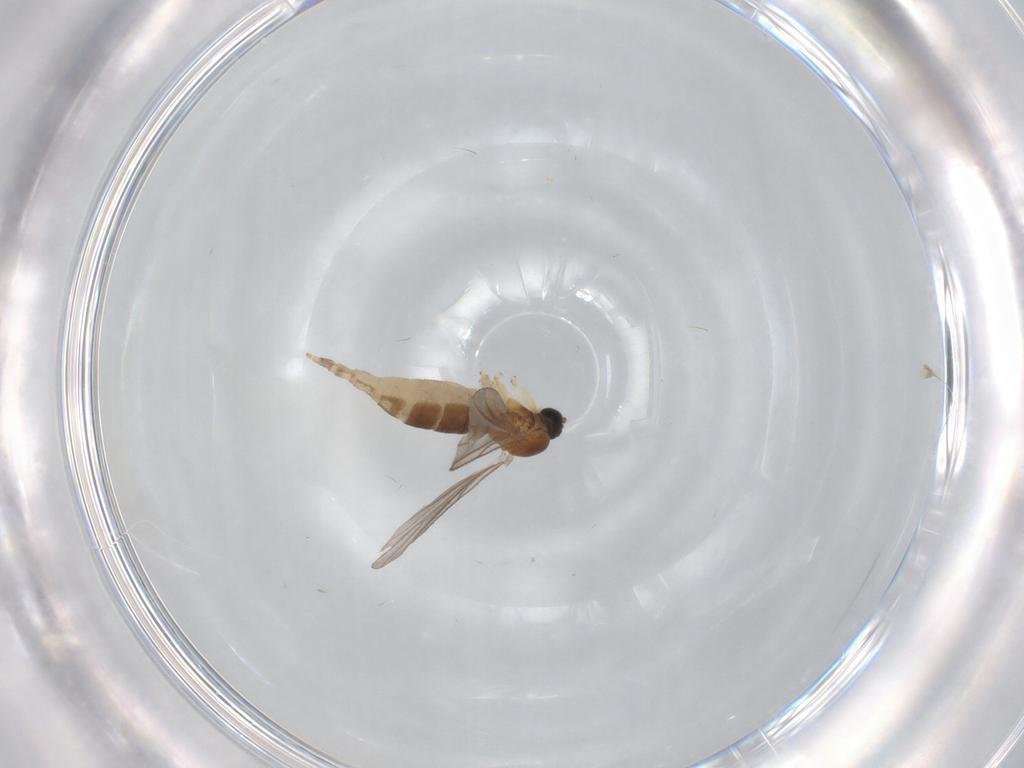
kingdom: Animalia
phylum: Arthropoda
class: Insecta
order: Diptera
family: Sciaridae
